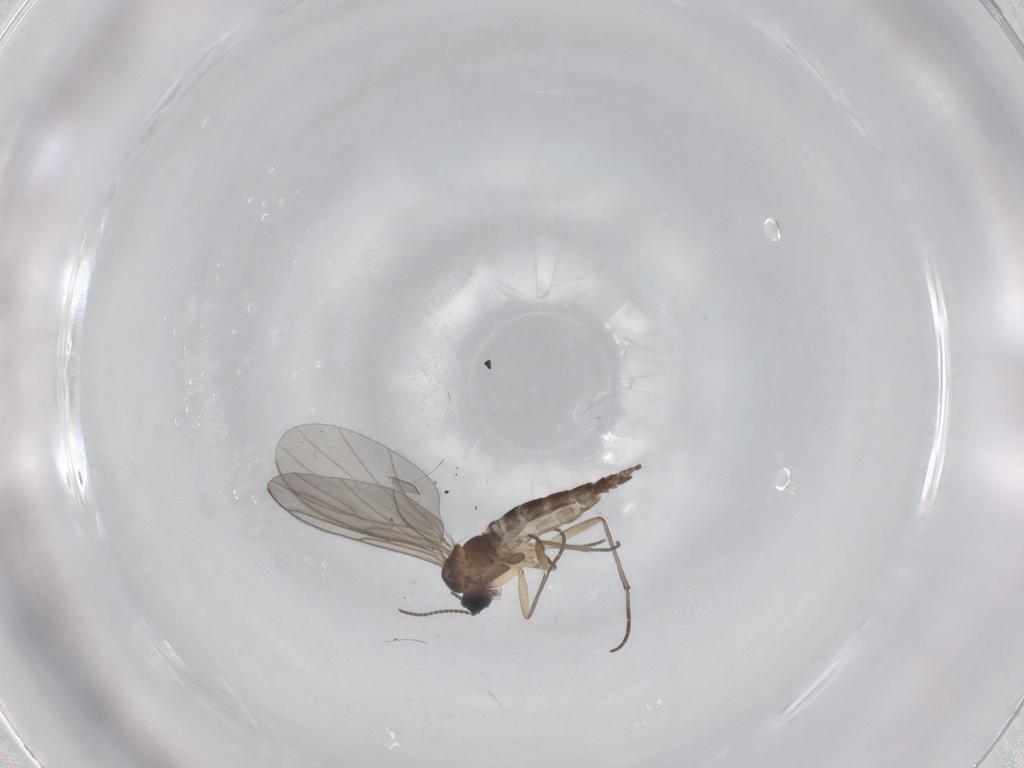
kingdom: Animalia
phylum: Arthropoda
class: Insecta
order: Diptera
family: Sciaridae
